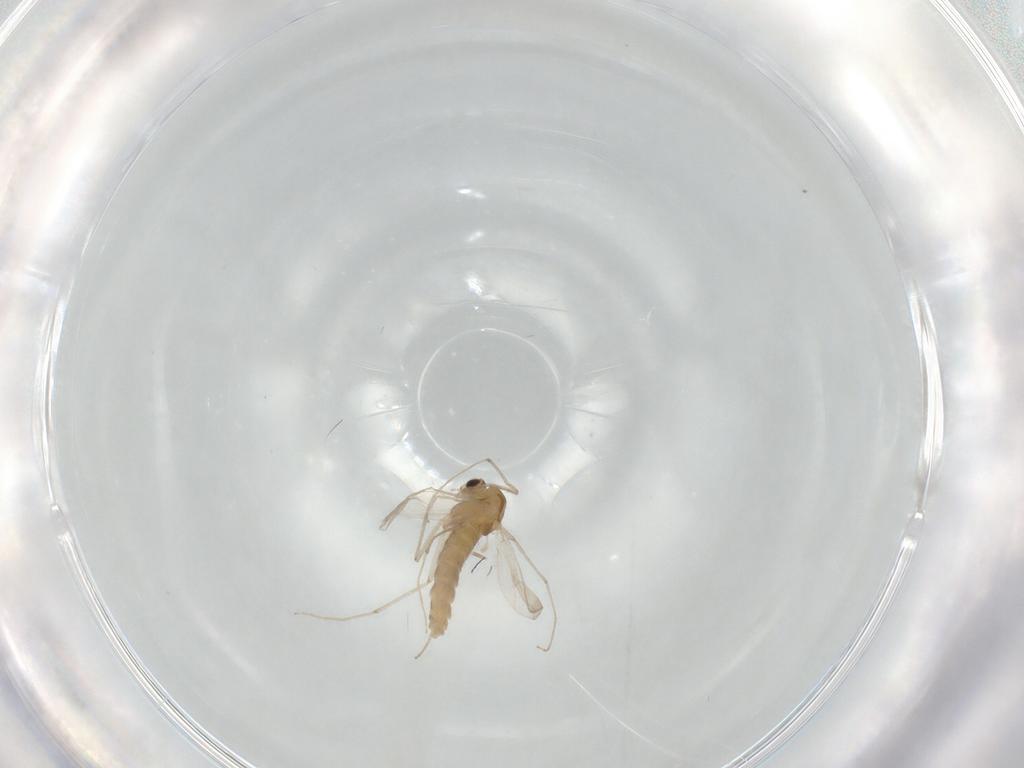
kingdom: Animalia
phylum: Arthropoda
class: Insecta
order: Diptera
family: Chironomidae
